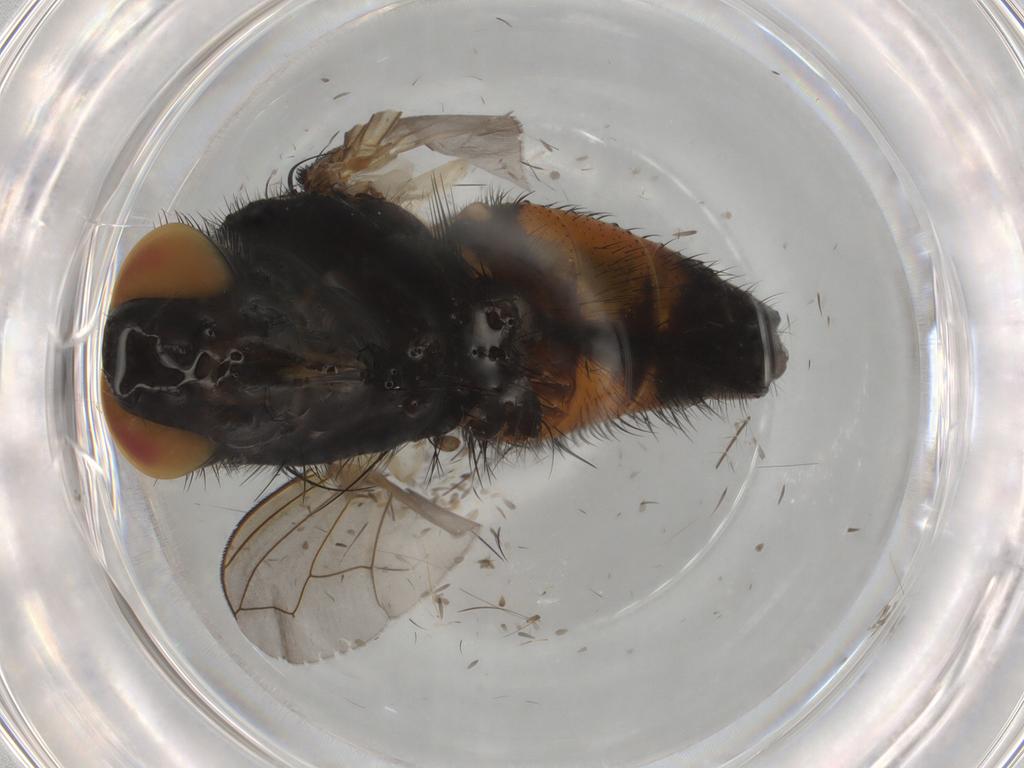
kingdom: Animalia
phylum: Arthropoda
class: Insecta
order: Diptera
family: Tachinidae
